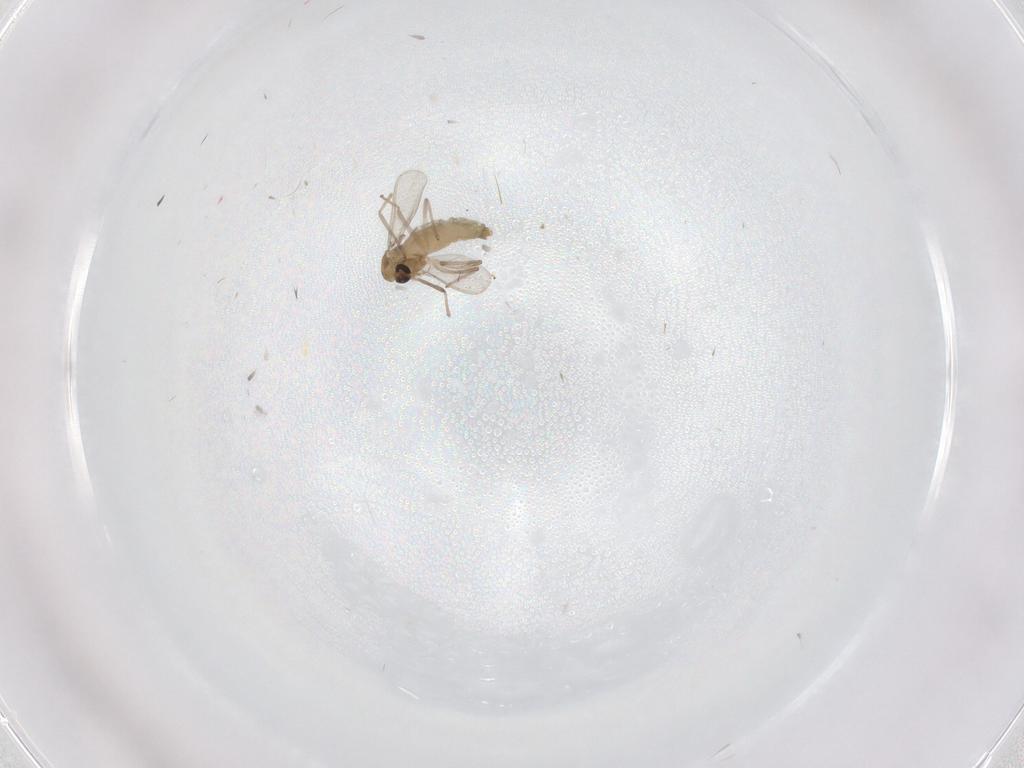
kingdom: Animalia
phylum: Arthropoda
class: Insecta
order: Diptera
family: Chironomidae
